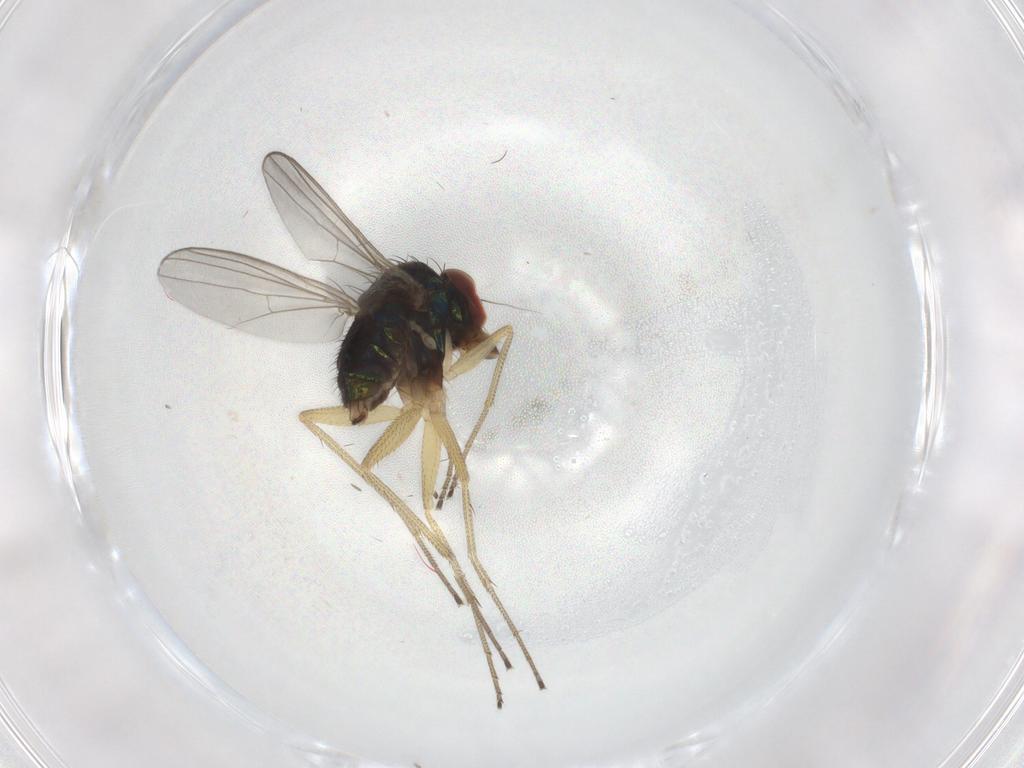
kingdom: Animalia
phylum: Arthropoda
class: Insecta
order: Diptera
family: Dolichopodidae
